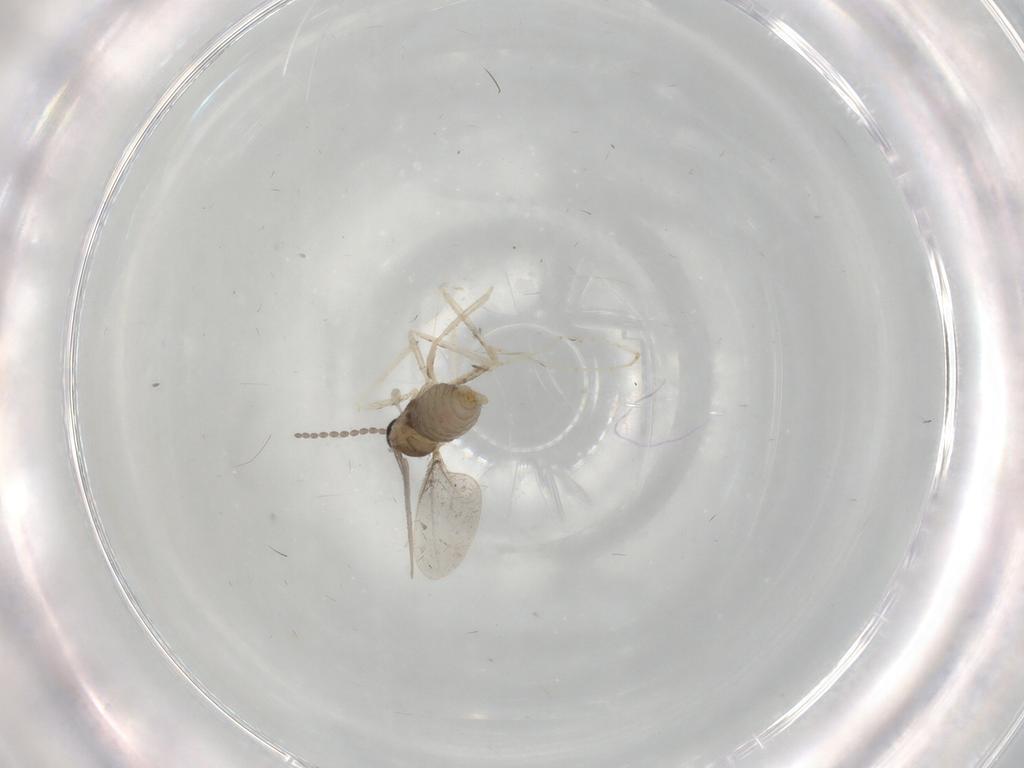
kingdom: Animalia
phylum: Arthropoda
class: Insecta
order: Diptera
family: Cecidomyiidae
